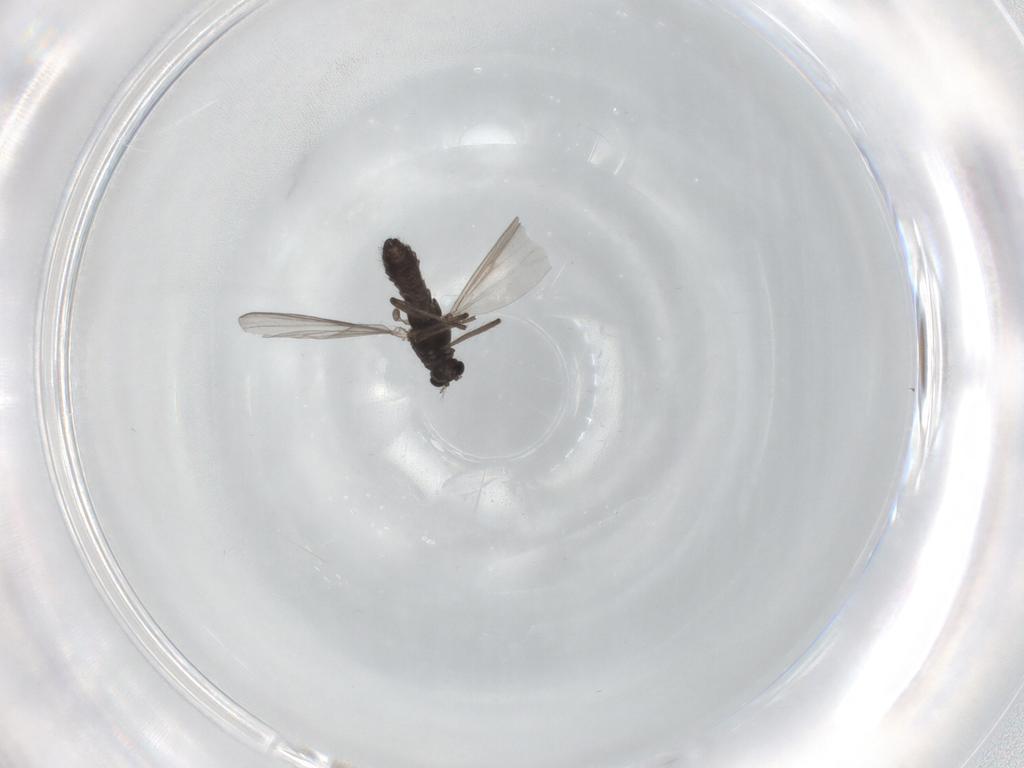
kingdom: Animalia
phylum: Arthropoda
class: Insecta
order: Diptera
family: Chironomidae
